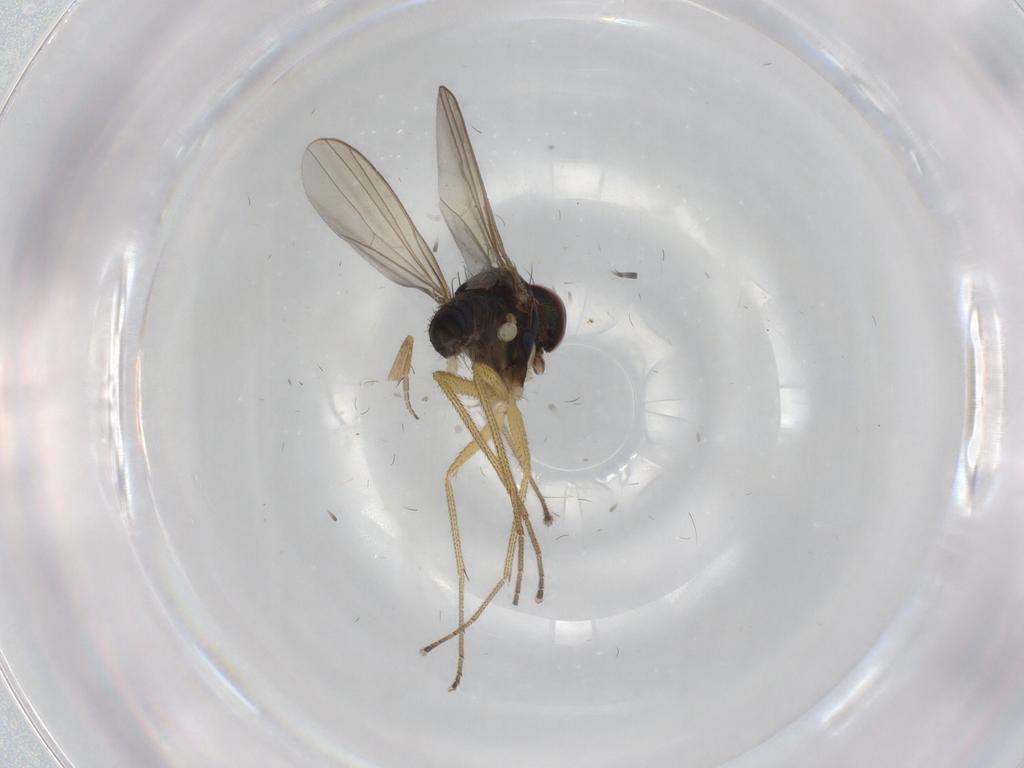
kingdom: Animalia
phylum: Arthropoda
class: Insecta
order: Diptera
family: Dolichopodidae
